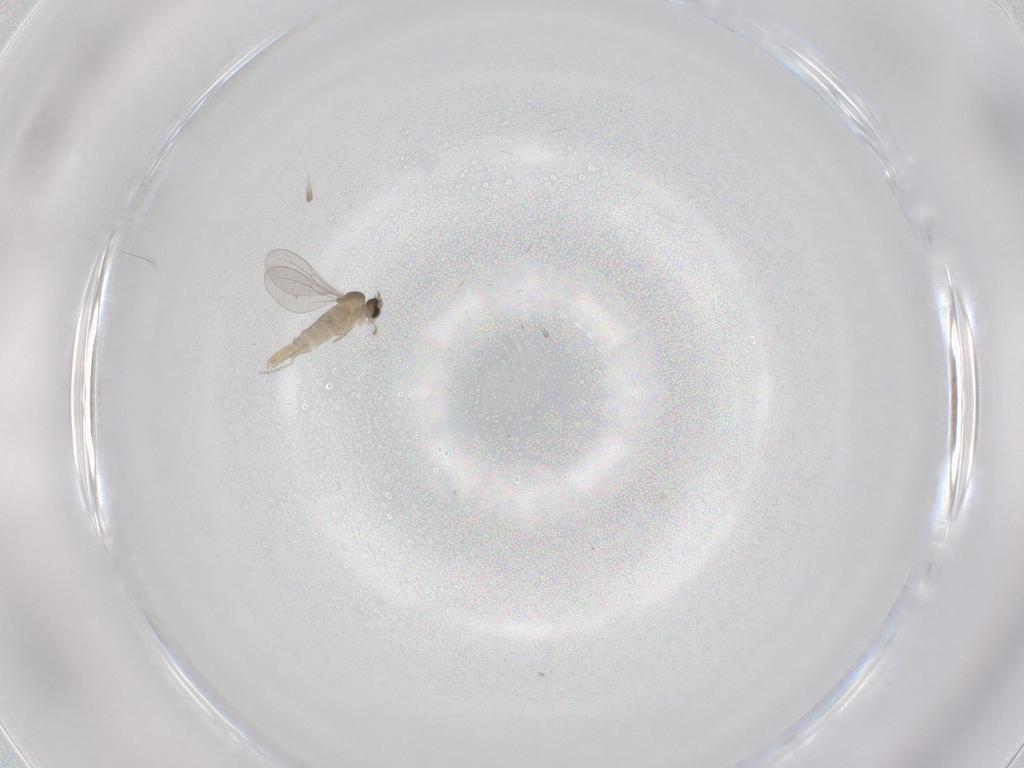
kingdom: Animalia
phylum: Arthropoda
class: Insecta
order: Diptera
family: Cecidomyiidae
